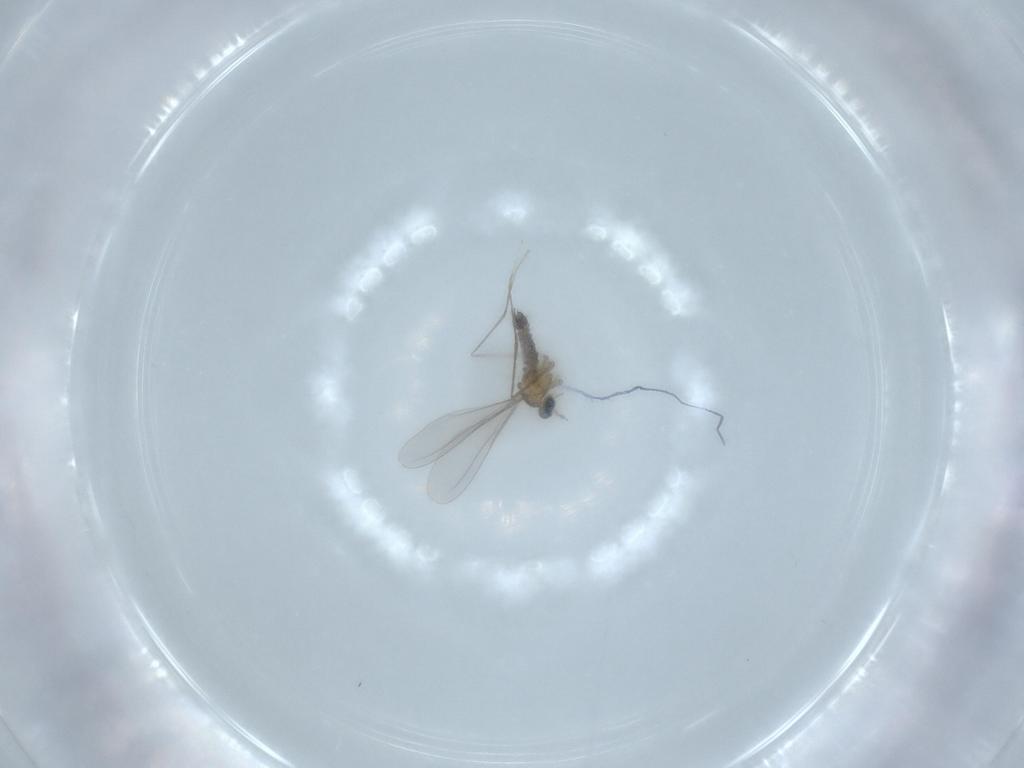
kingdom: Animalia
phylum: Arthropoda
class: Insecta
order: Diptera
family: Cecidomyiidae
